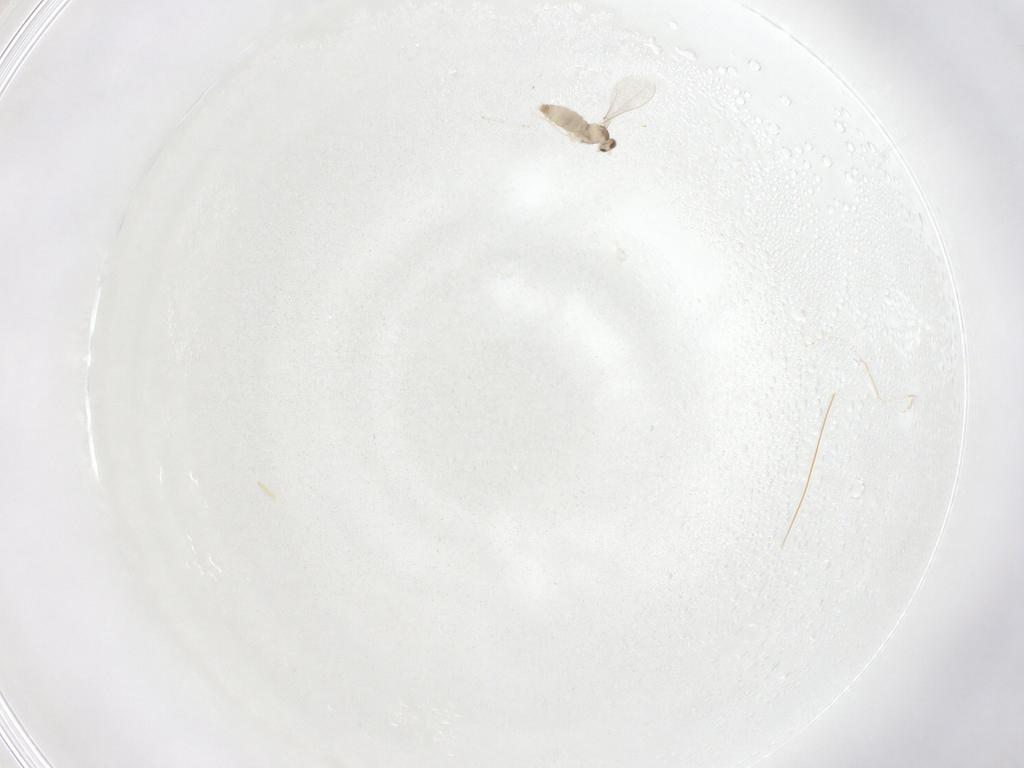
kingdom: Animalia
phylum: Arthropoda
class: Insecta
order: Diptera
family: Cecidomyiidae
